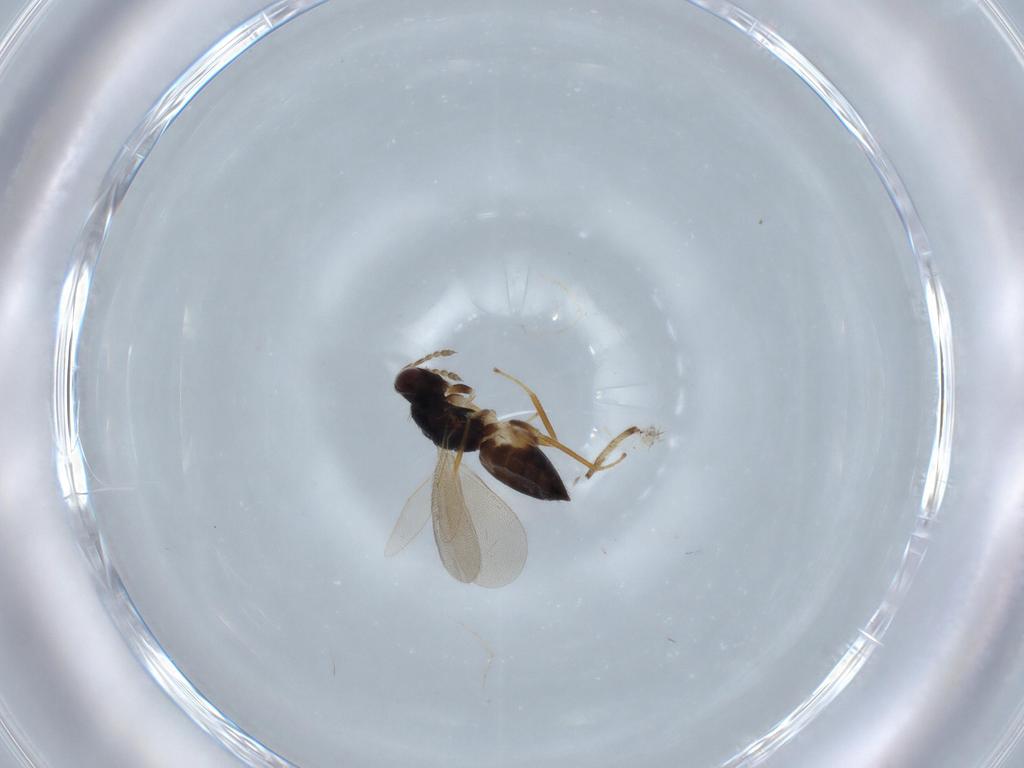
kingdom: Animalia
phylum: Arthropoda
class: Insecta
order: Hymenoptera
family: Eulophidae
